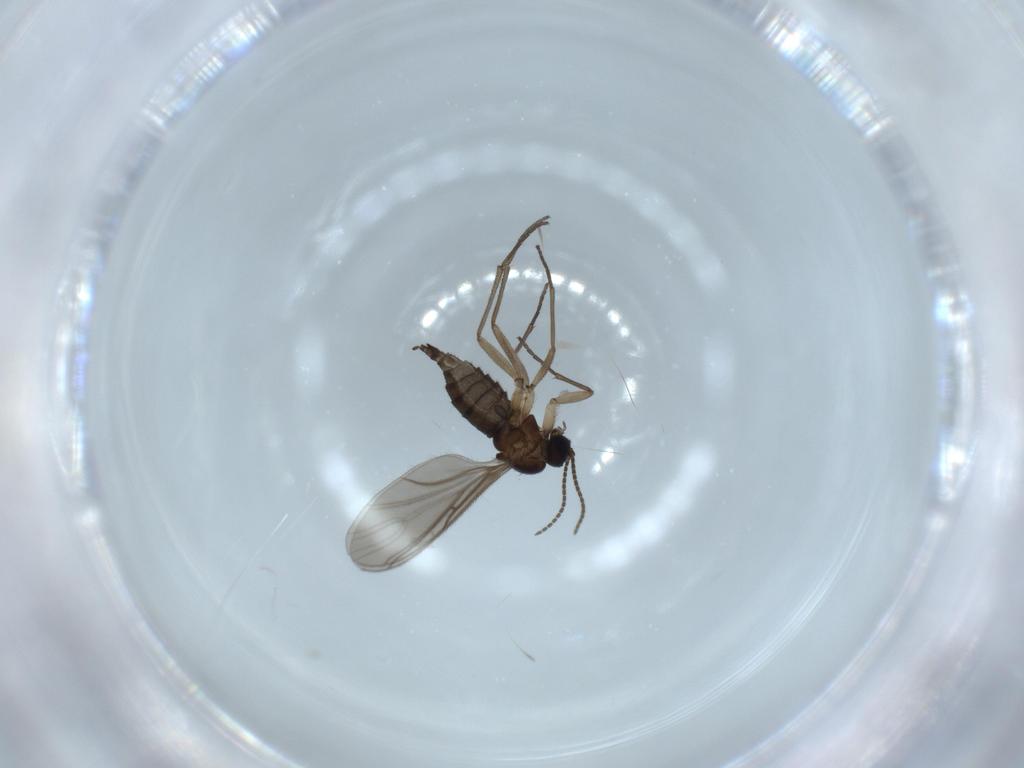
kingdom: Animalia
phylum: Arthropoda
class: Insecta
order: Diptera
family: Sciaridae
